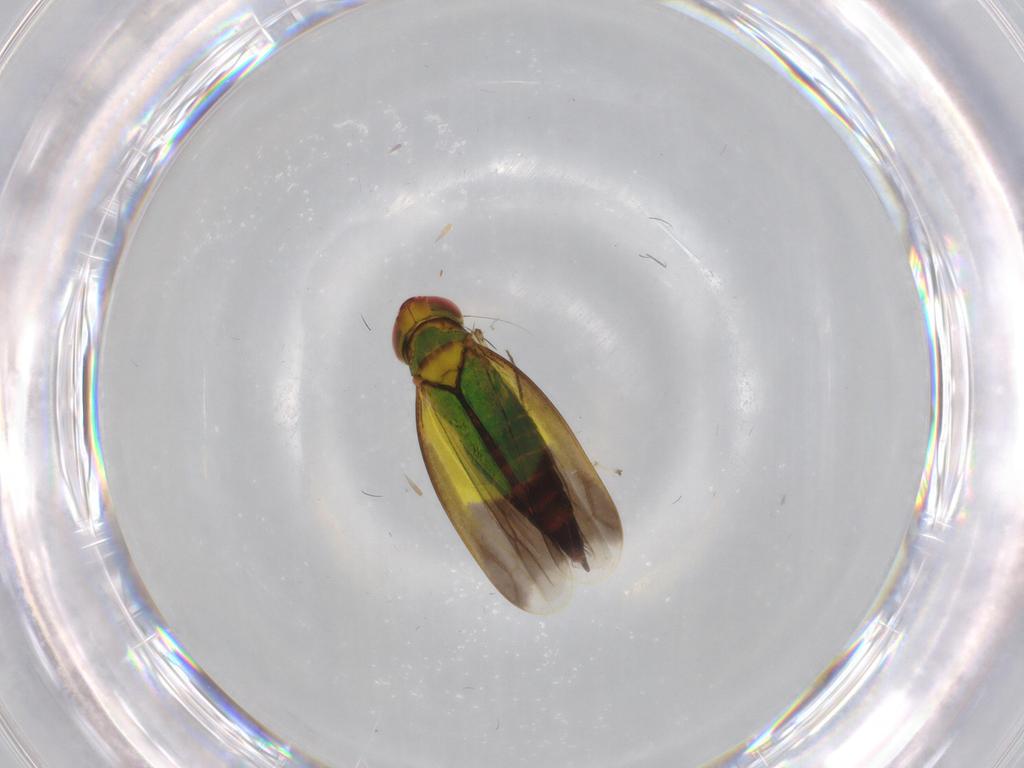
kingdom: Animalia
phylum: Arthropoda
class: Insecta
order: Hemiptera
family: Cicadellidae
